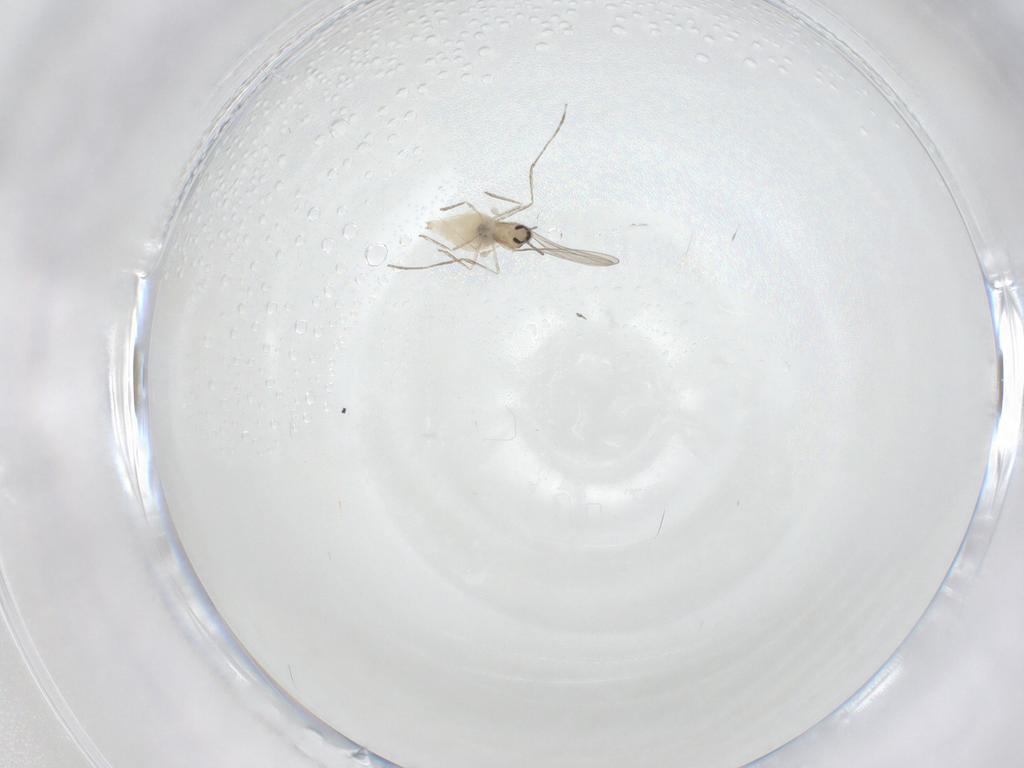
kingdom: Animalia
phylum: Arthropoda
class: Insecta
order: Diptera
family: Cecidomyiidae
